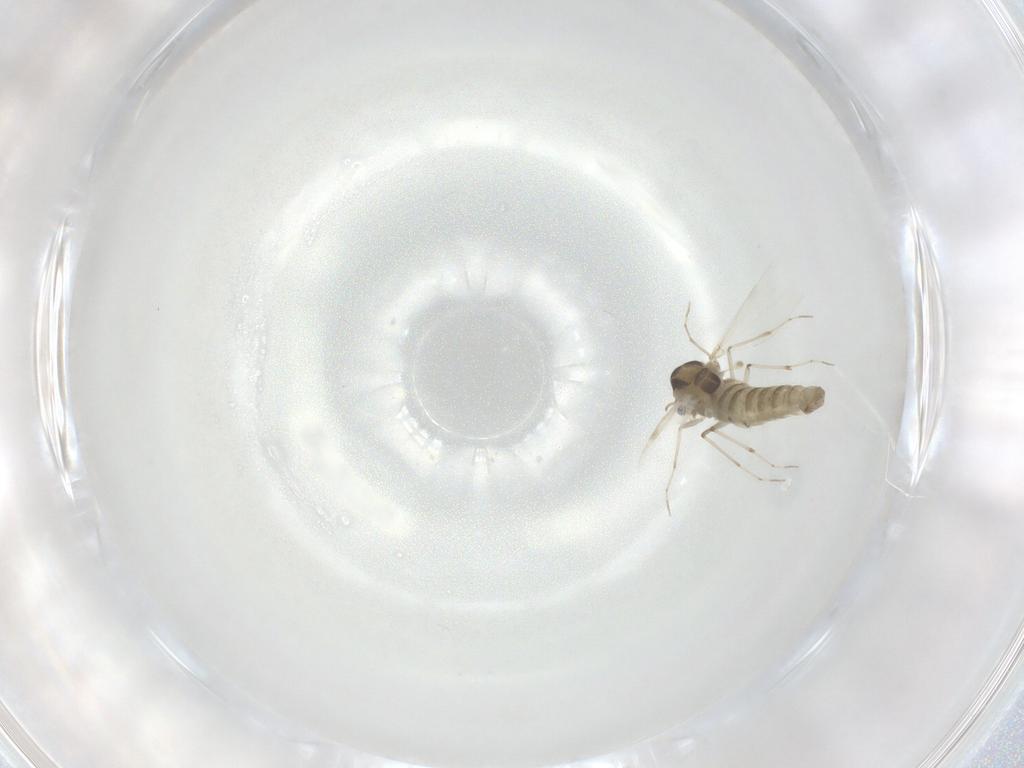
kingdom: Animalia
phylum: Arthropoda
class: Insecta
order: Diptera
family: Chironomidae
